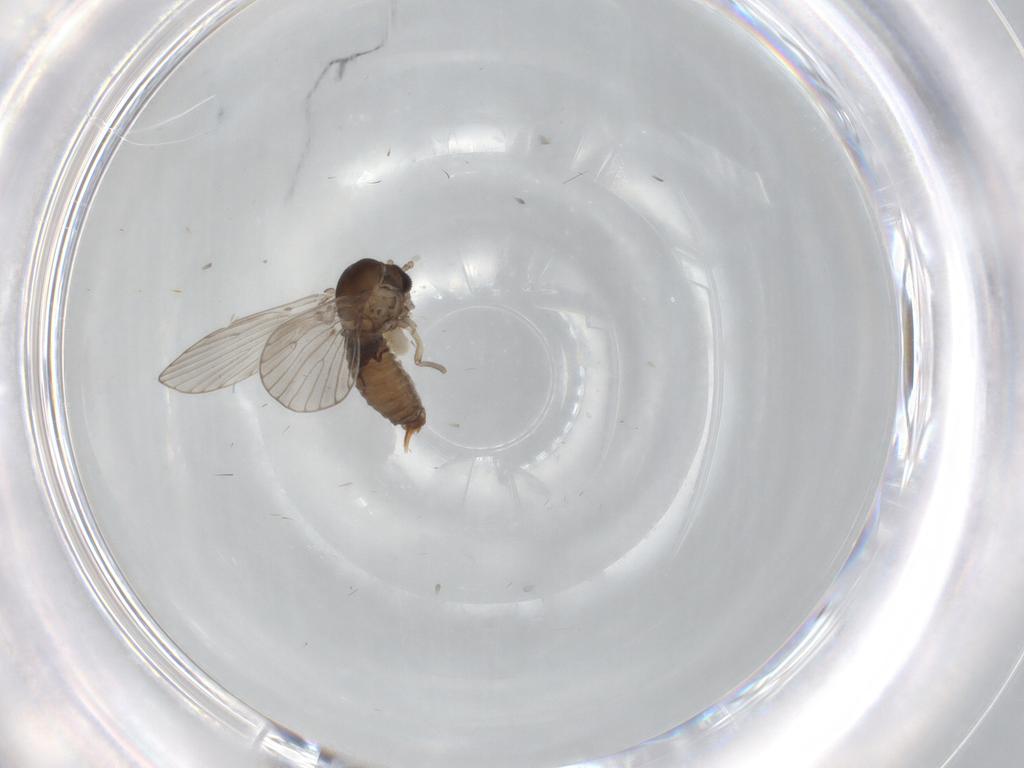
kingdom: Animalia
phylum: Arthropoda
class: Insecta
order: Diptera
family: Psychodidae
